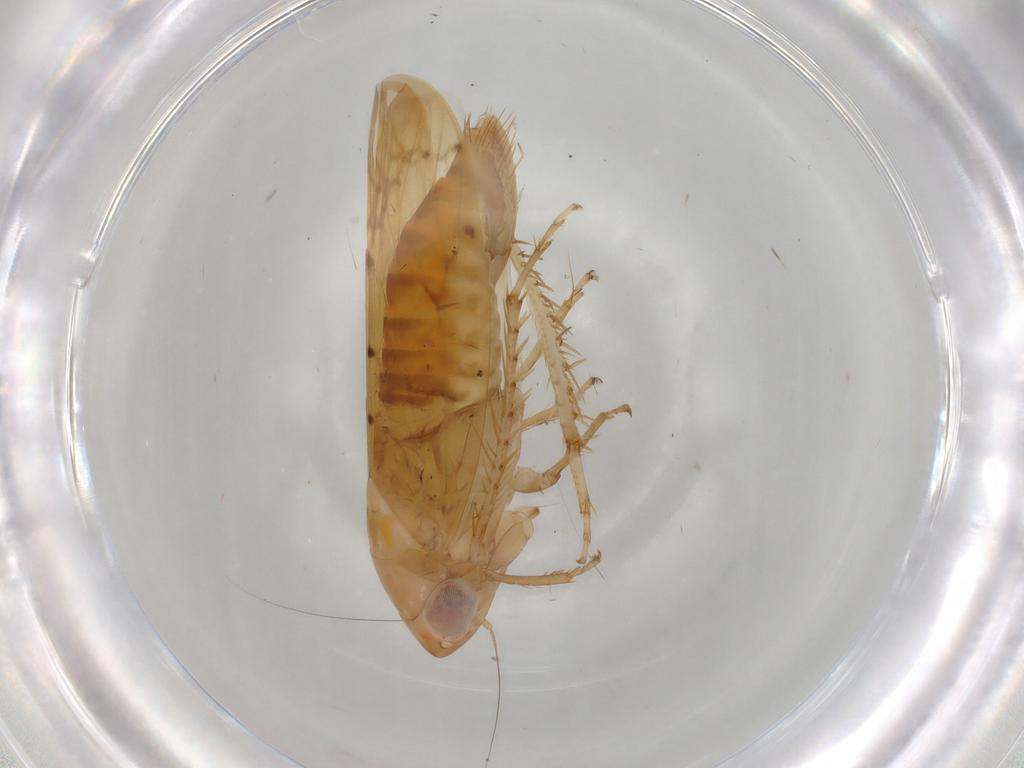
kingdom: Animalia
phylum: Arthropoda
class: Insecta
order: Hemiptera
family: Cicadellidae
